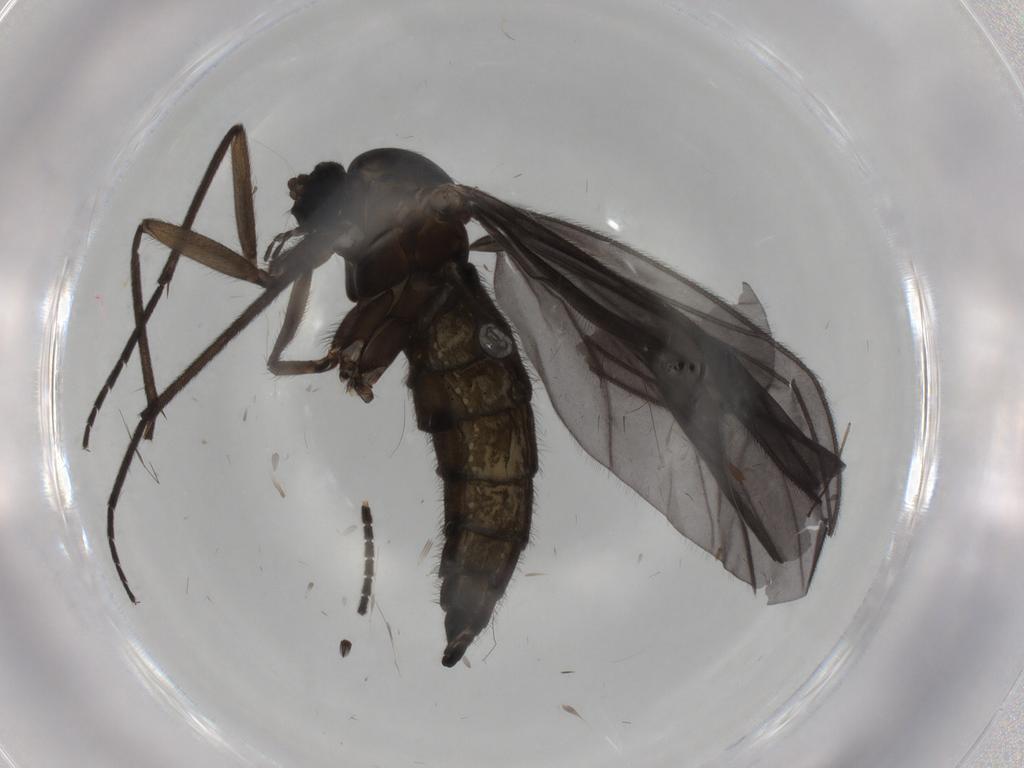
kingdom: Animalia
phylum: Arthropoda
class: Insecta
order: Diptera
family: Sciaridae
